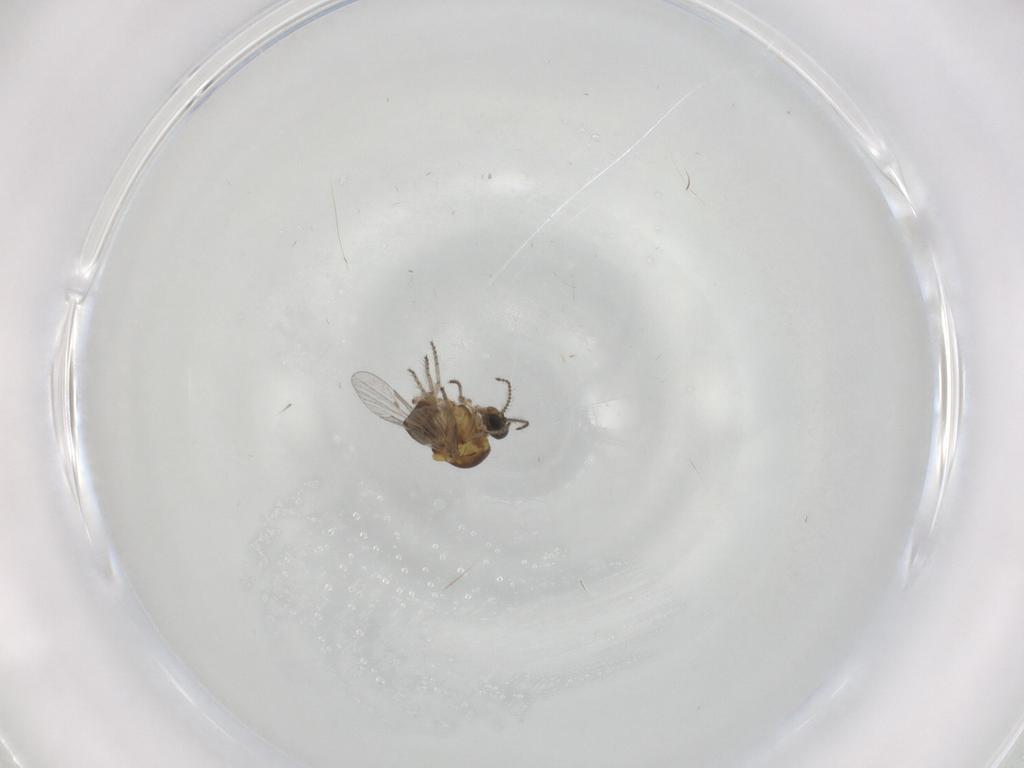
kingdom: Animalia
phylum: Arthropoda
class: Insecta
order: Diptera
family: Ceratopogonidae
